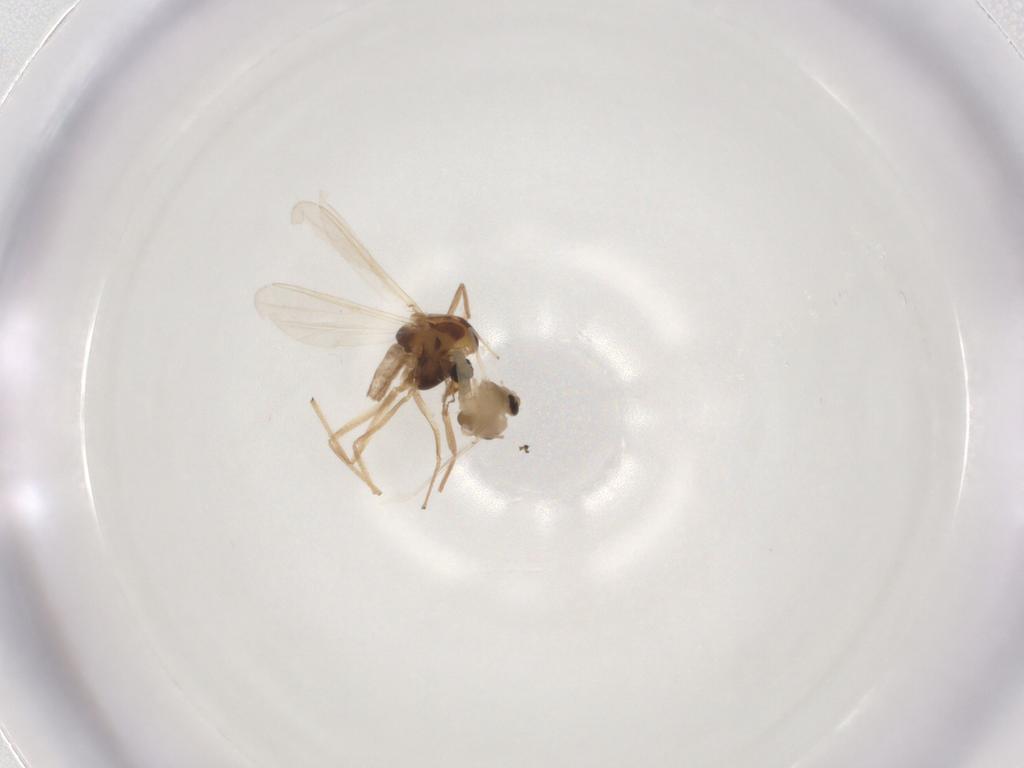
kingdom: Animalia
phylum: Arthropoda
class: Insecta
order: Diptera
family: Chironomidae
